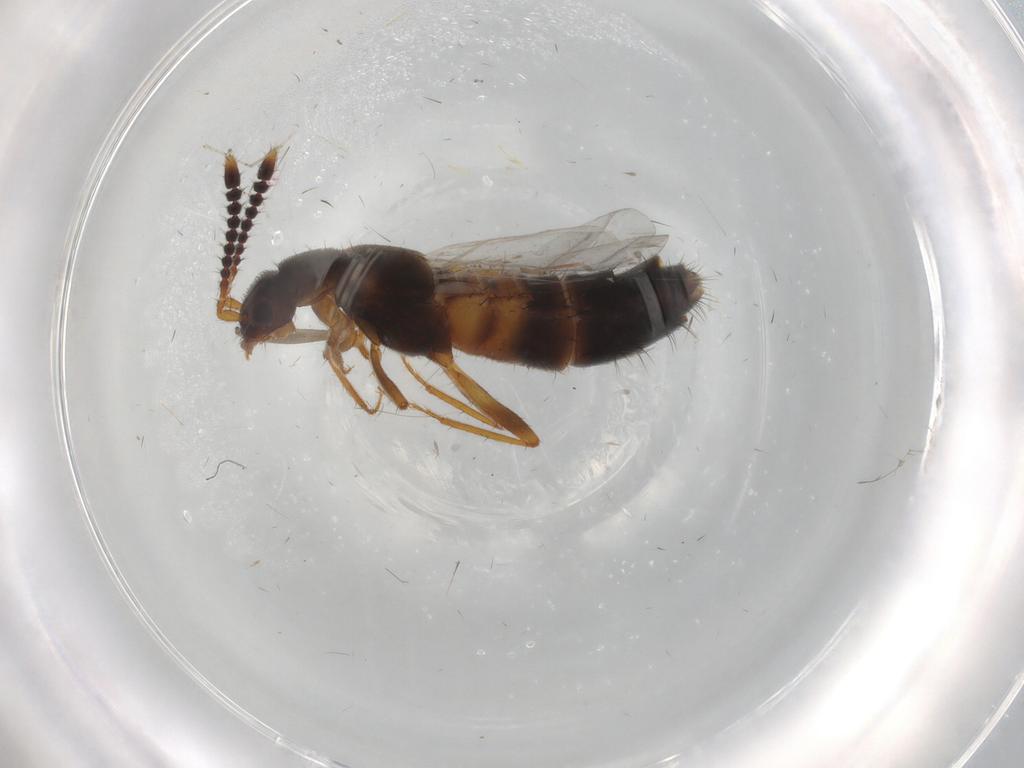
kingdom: Animalia
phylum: Arthropoda
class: Insecta
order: Coleoptera
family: Staphylinidae
